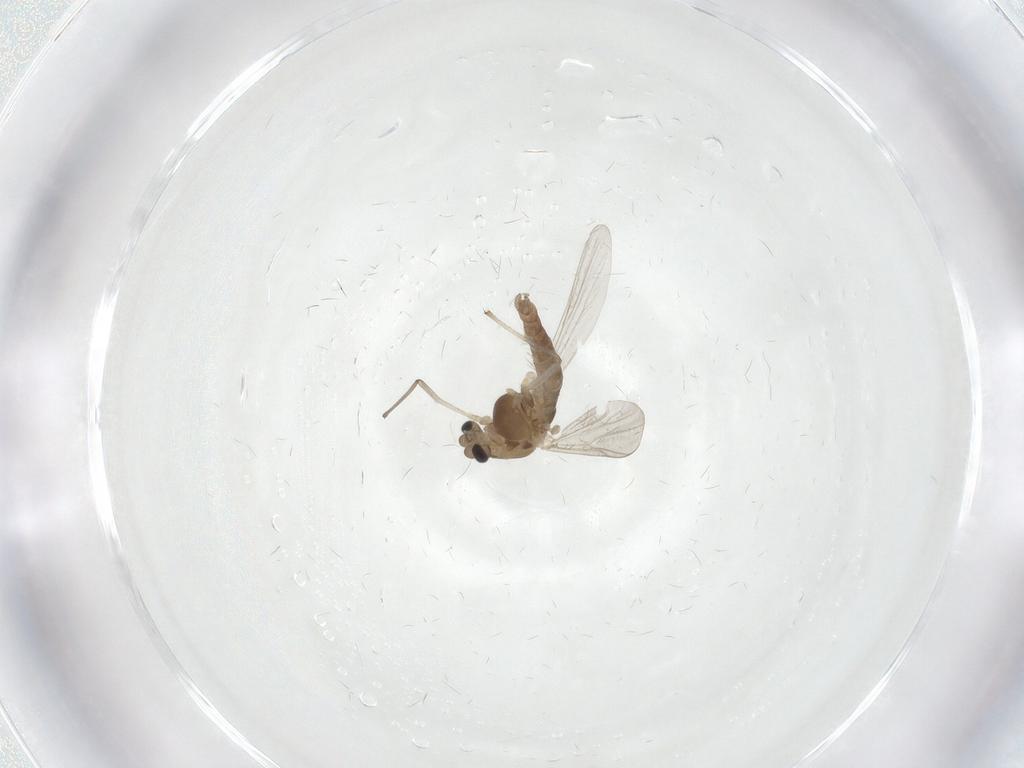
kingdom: Animalia
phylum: Arthropoda
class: Insecta
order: Diptera
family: Chironomidae
